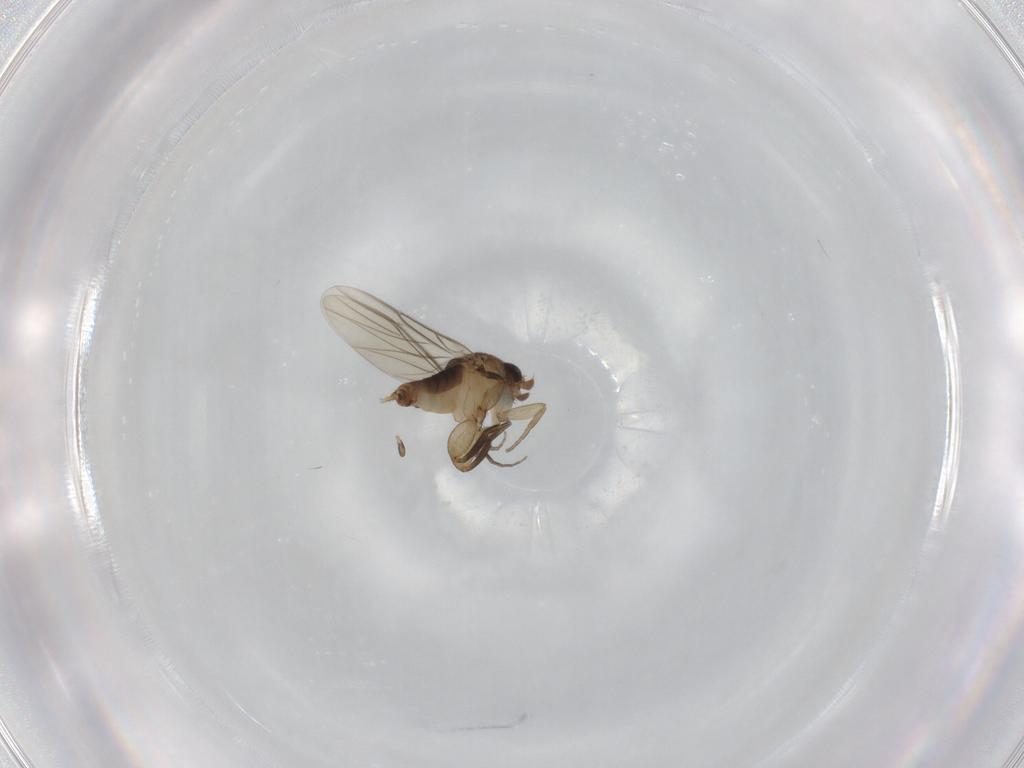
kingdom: Animalia
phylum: Arthropoda
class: Insecta
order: Diptera
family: Phoridae
